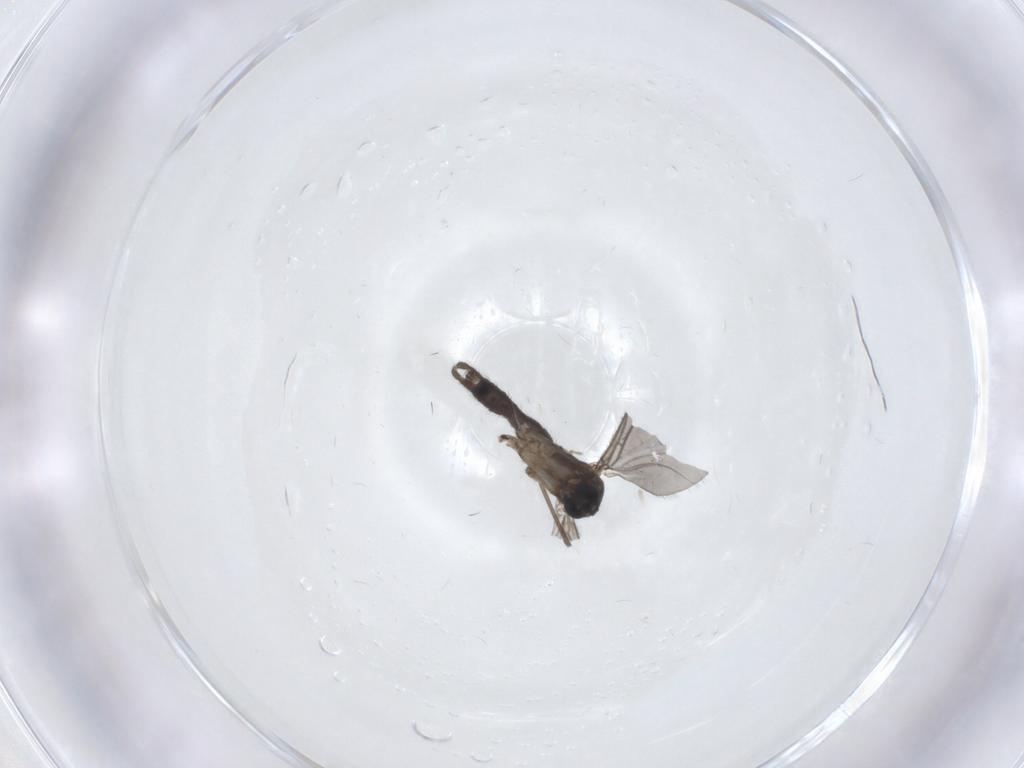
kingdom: Animalia
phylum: Arthropoda
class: Insecta
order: Diptera
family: Sciaridae
